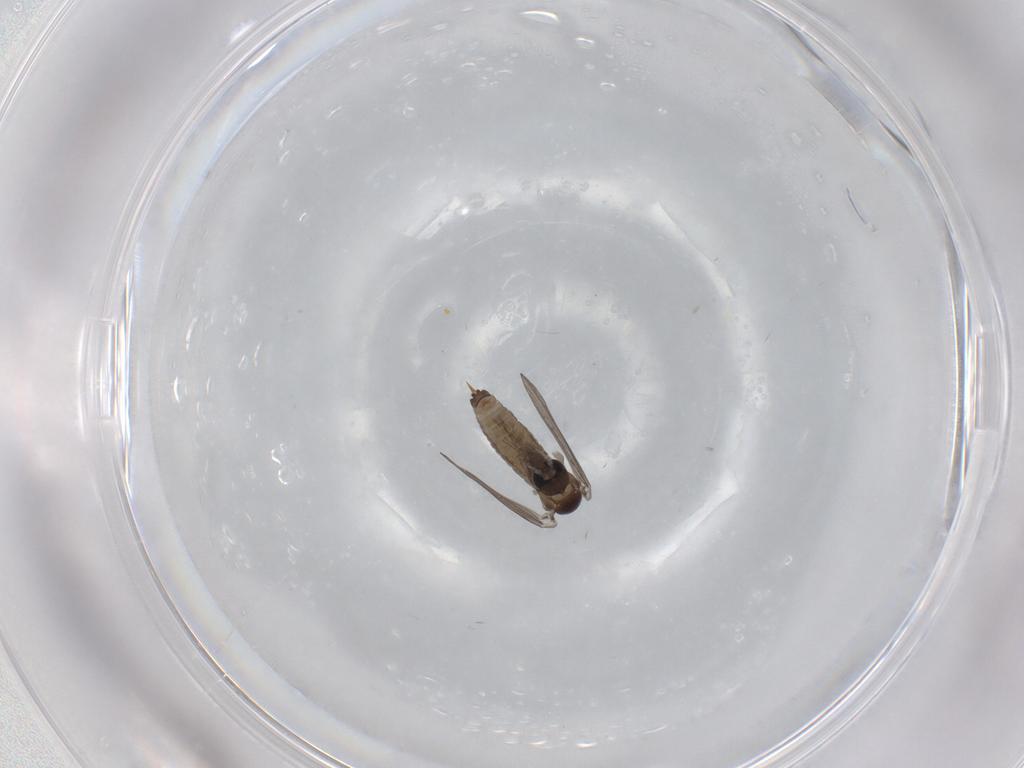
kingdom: Animalia
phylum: Arthropoda
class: Insecta
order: Diptera
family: Psychodidae
